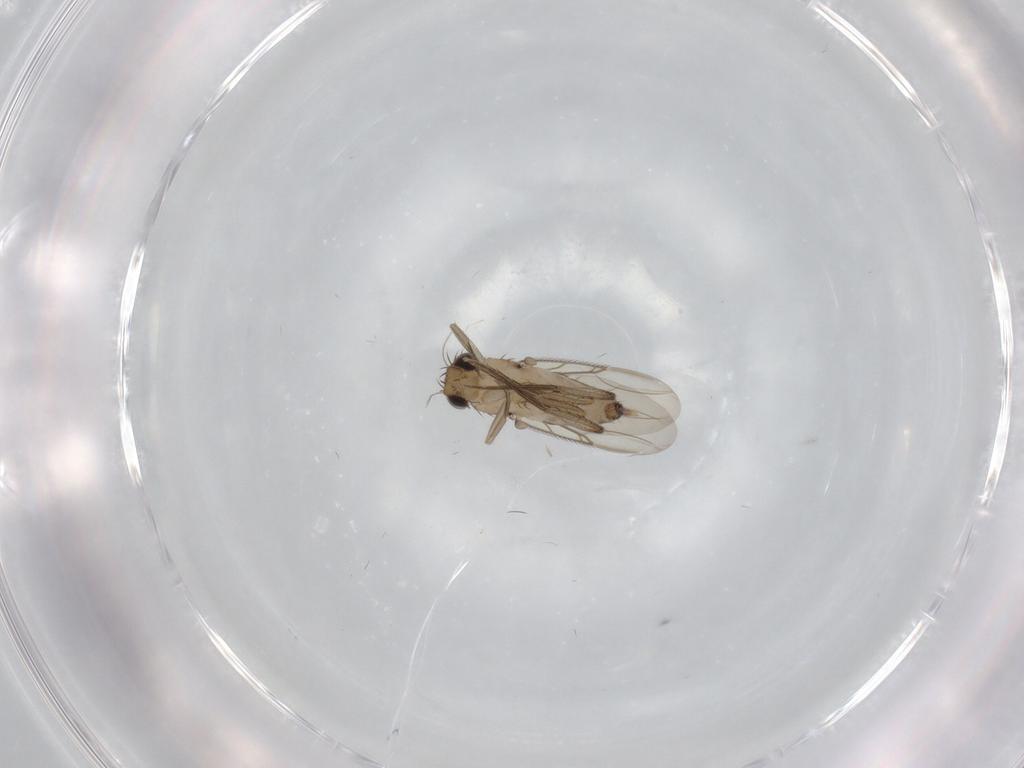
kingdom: Animalia
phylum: Arthropoda
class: Insecta
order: Diptera
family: Phoridae
